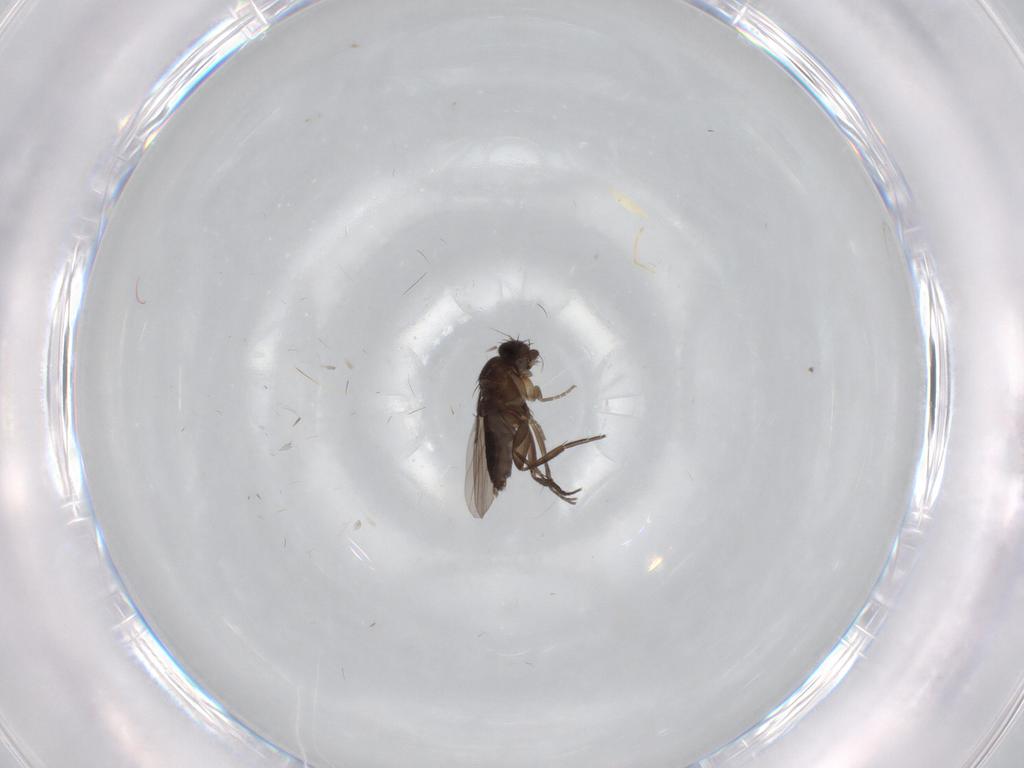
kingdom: Animalia
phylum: Arthropoda
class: Insecta
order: Diptera
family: Phoridae
